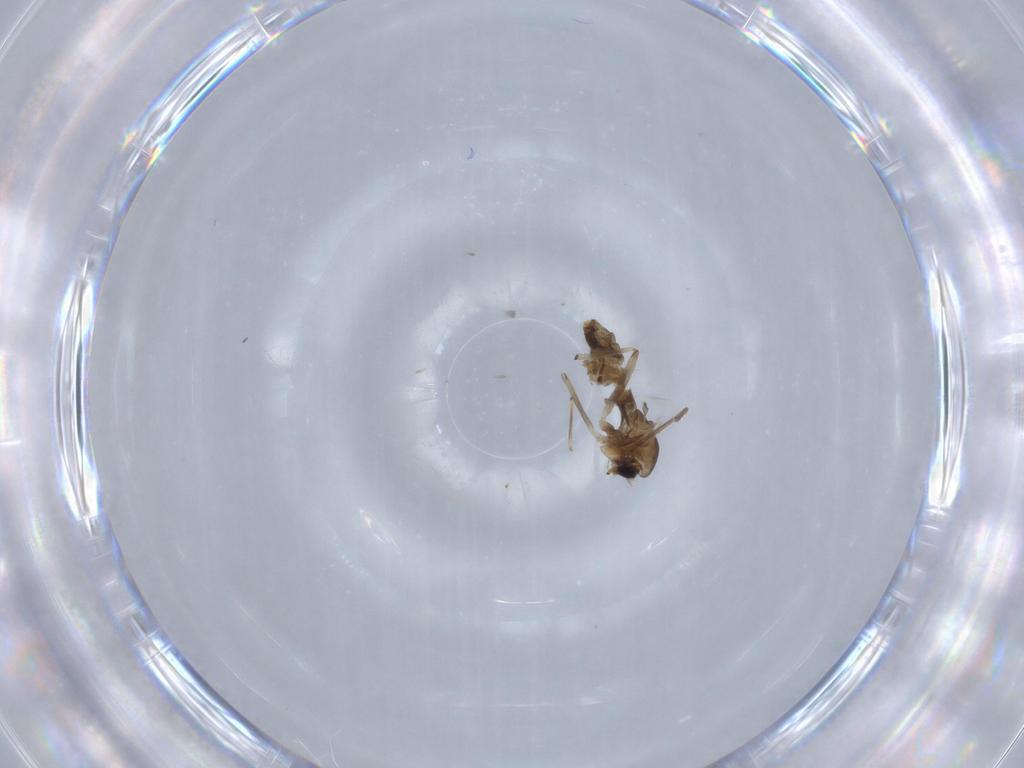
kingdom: Animalia
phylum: Arthropoda
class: Insecta
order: Diptera
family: Chironomidae
